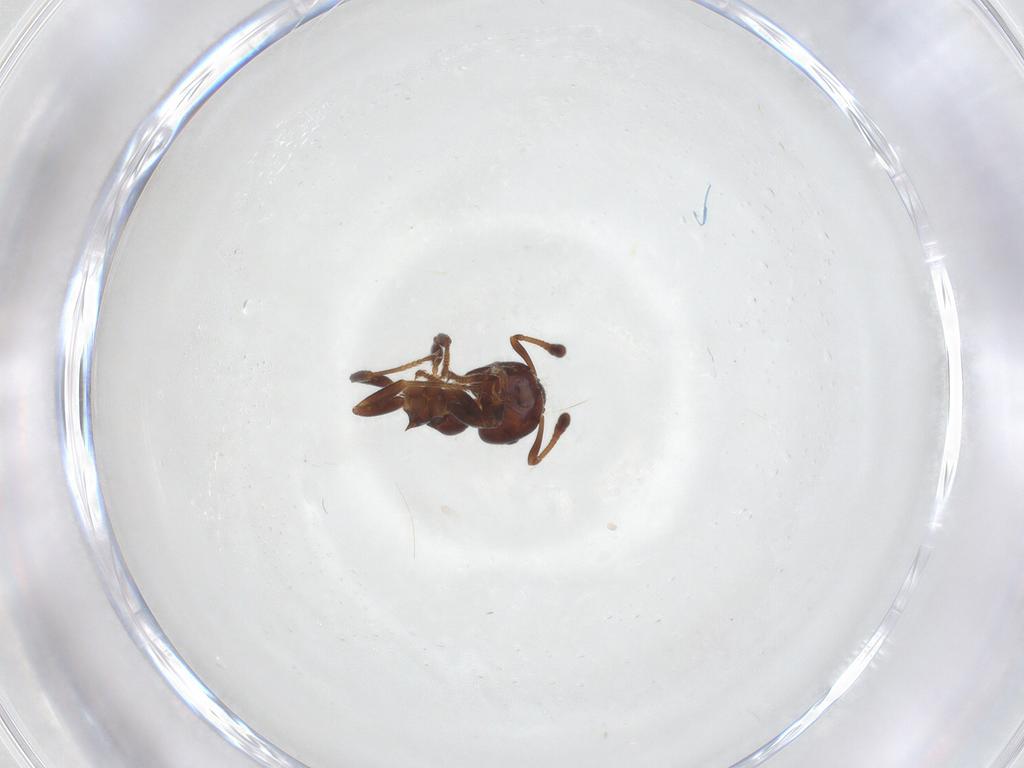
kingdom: Animalia
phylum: Arthropoda
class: Insecta
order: Hymenoptera
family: Formicidae
